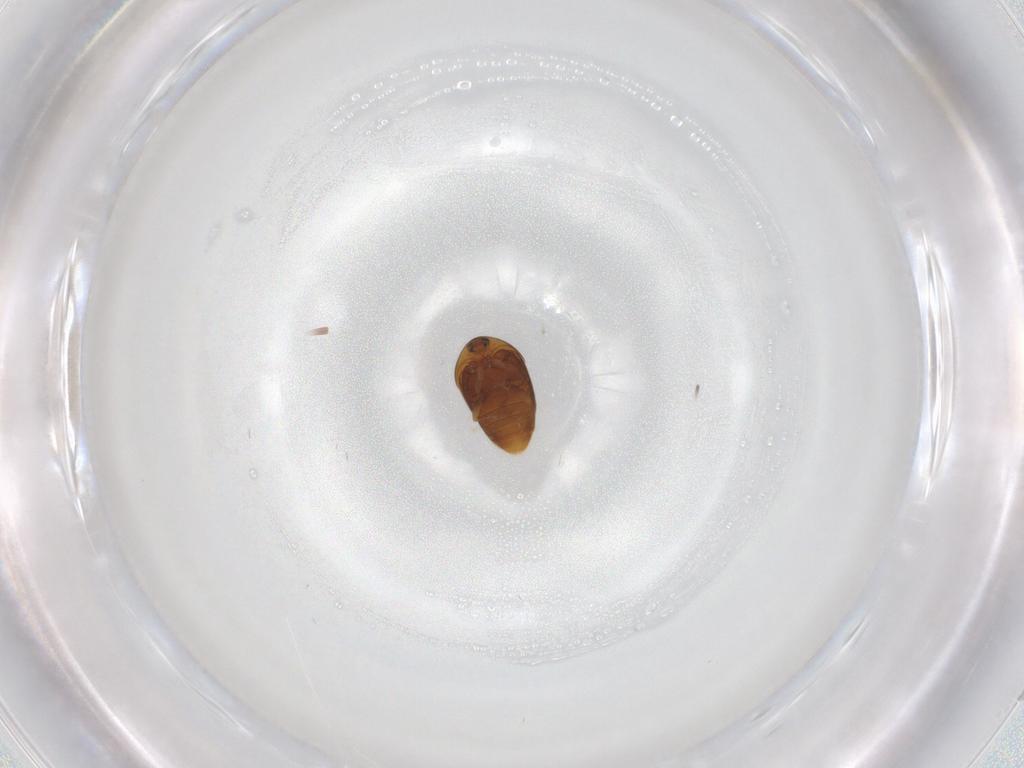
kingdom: Animalia
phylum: Arthropoda
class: Insecta
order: Coleoptera
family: Corylophidae
